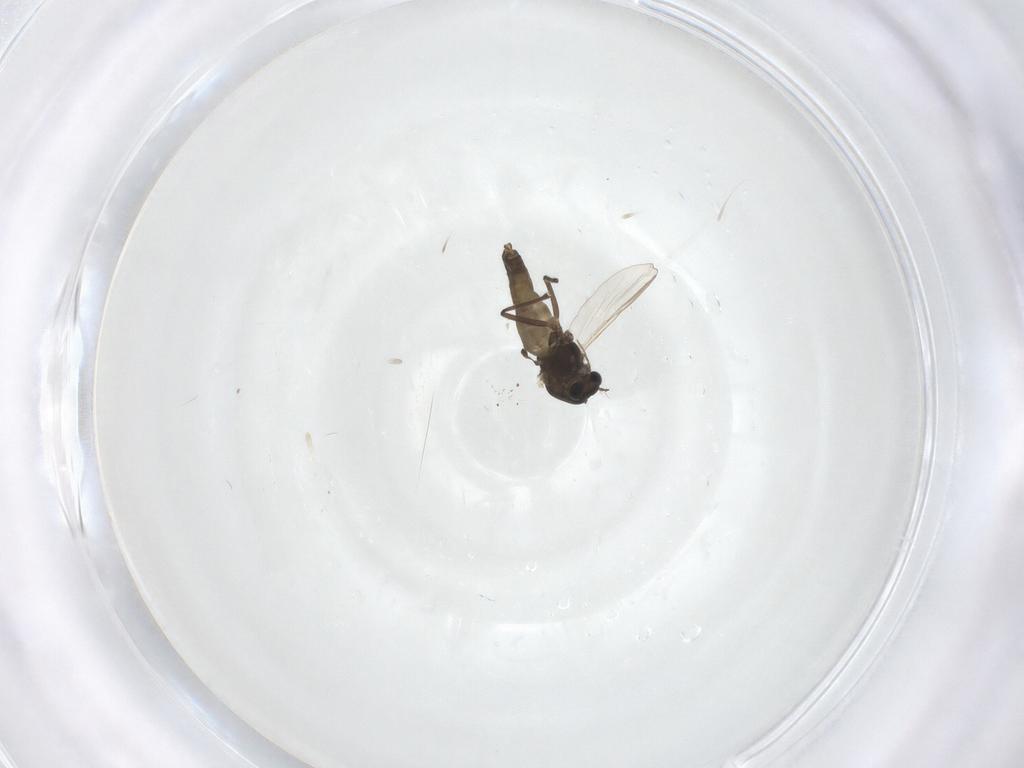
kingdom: Animalia
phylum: Arthropoda
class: Insecta
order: Diptera
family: Chironomidae
